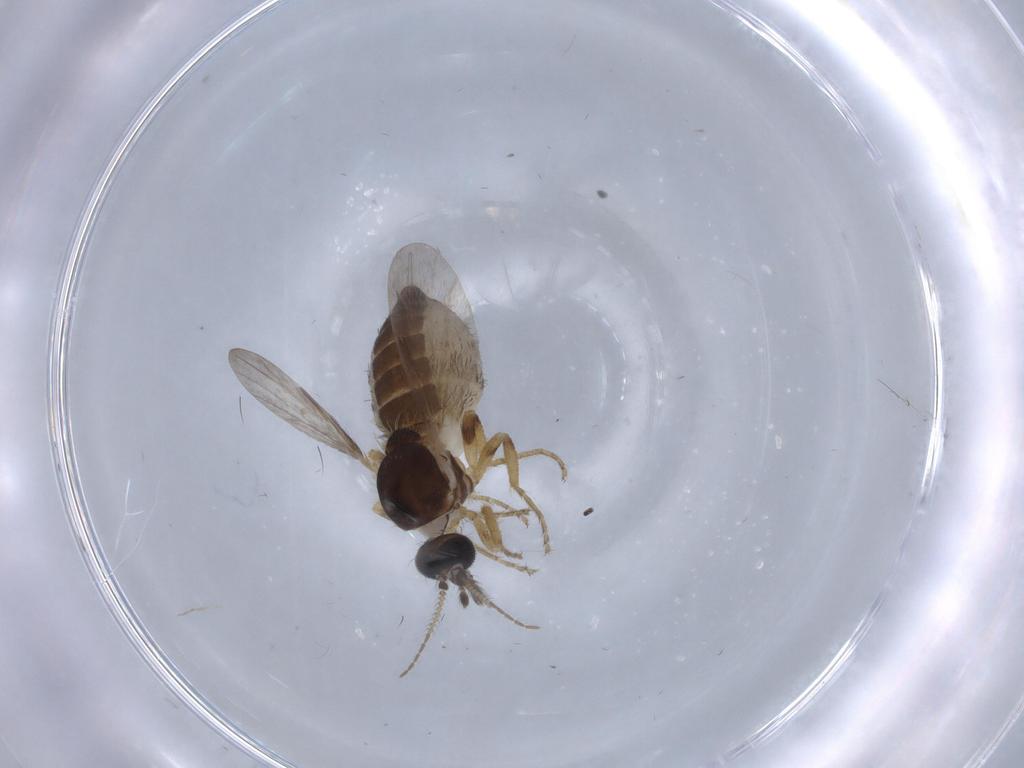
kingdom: Animalia
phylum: Arthropoda
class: Insecta
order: Diptera
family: Ceratopogonidae
